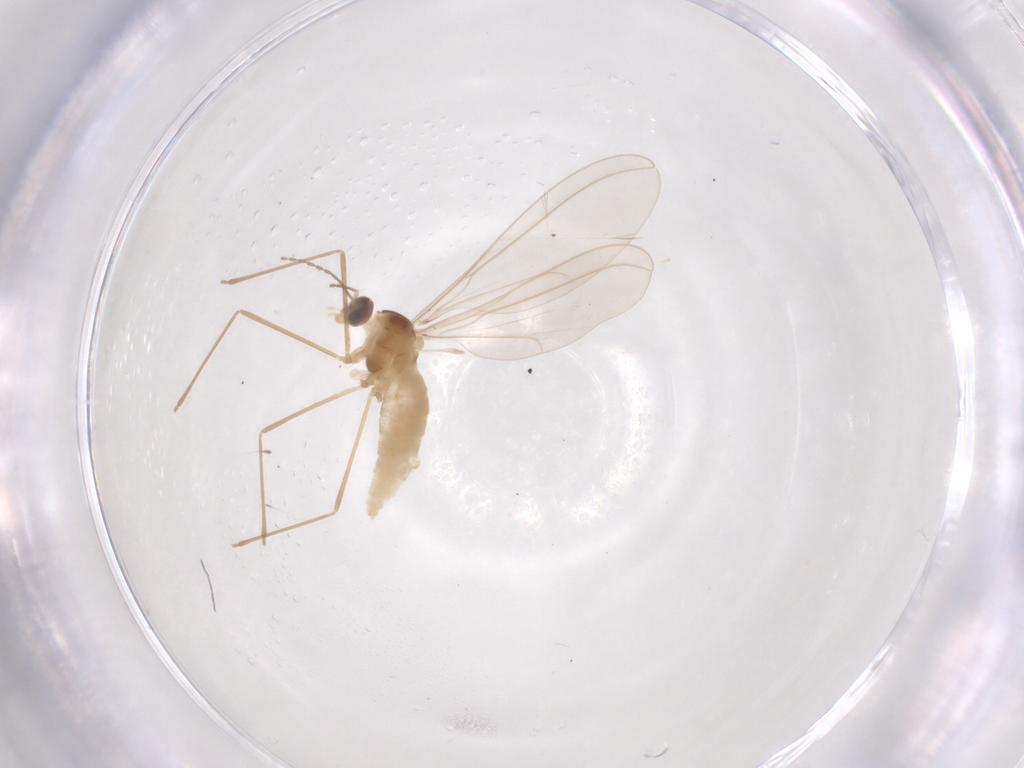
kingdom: Animalia
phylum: Arthropoda
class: Insecta
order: Diptera
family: Cecidomyiidae
